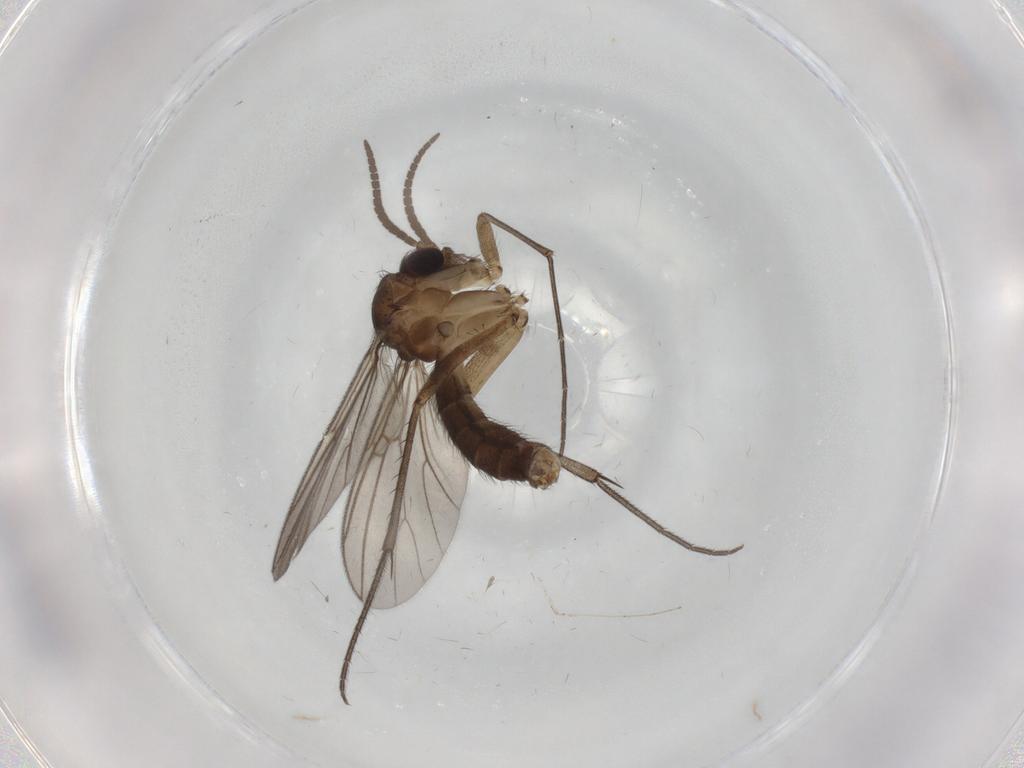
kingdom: Animalia
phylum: Arthropoda
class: Insecta
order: Diptera
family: Mycetophilidae
